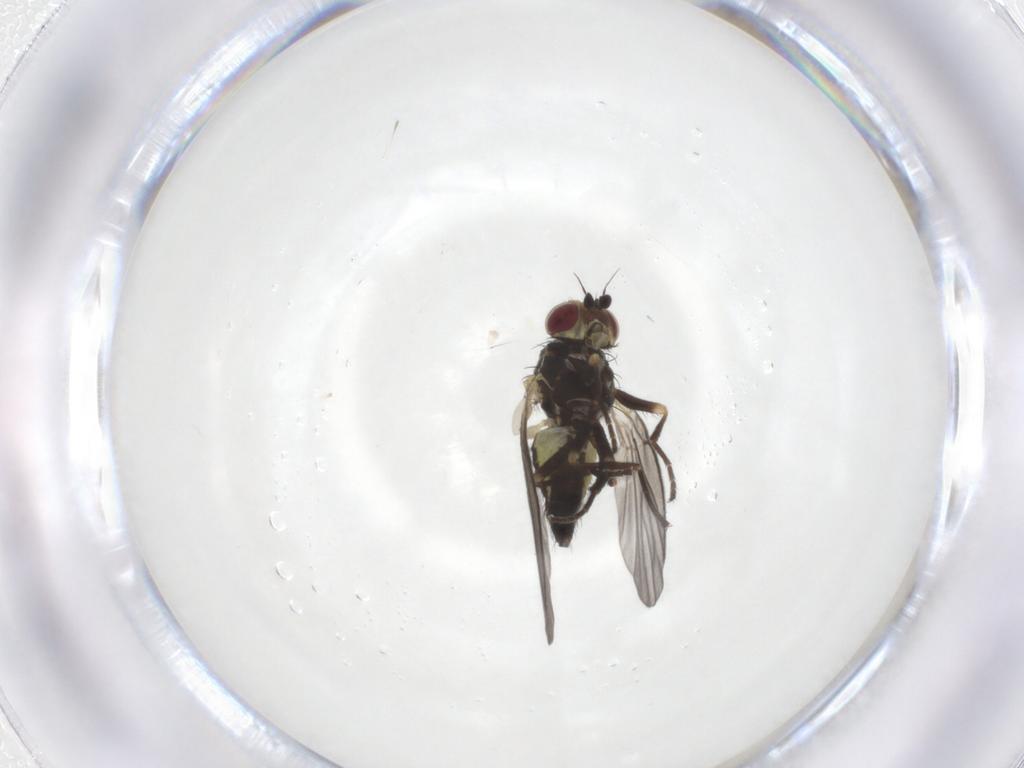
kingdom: Animalia
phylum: Arthropoda
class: Insecta
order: Diptera
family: Agromyzidae
